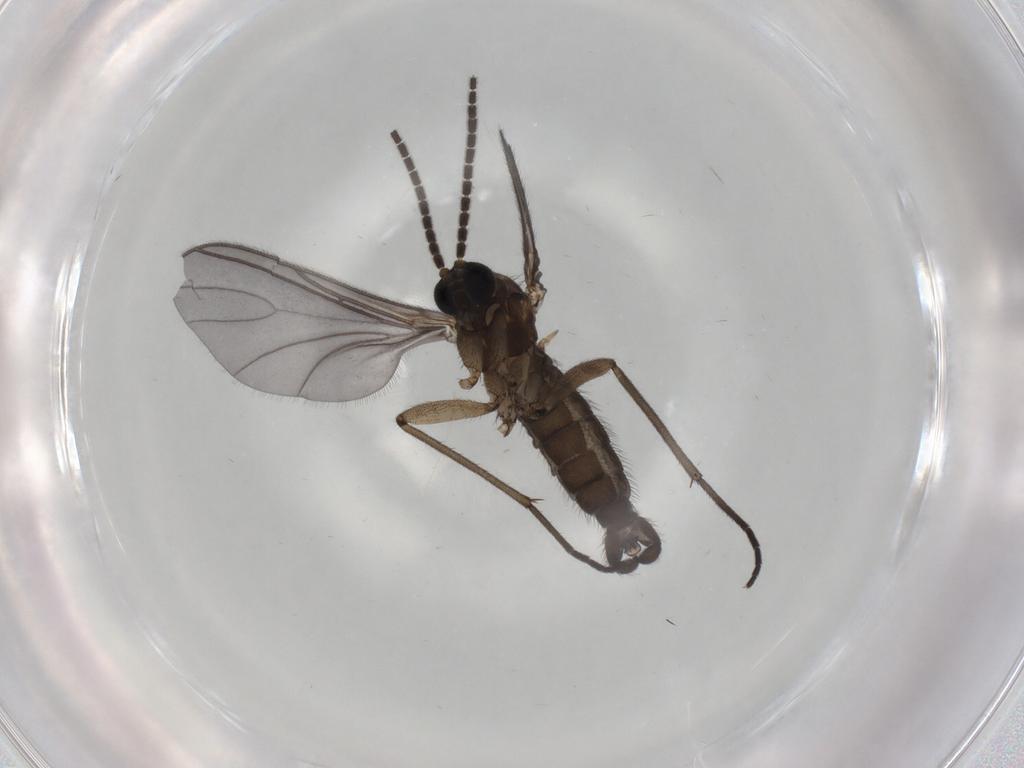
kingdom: Animalia
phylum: Arthropoda
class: Insecta
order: Diptera
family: Sciaridae
